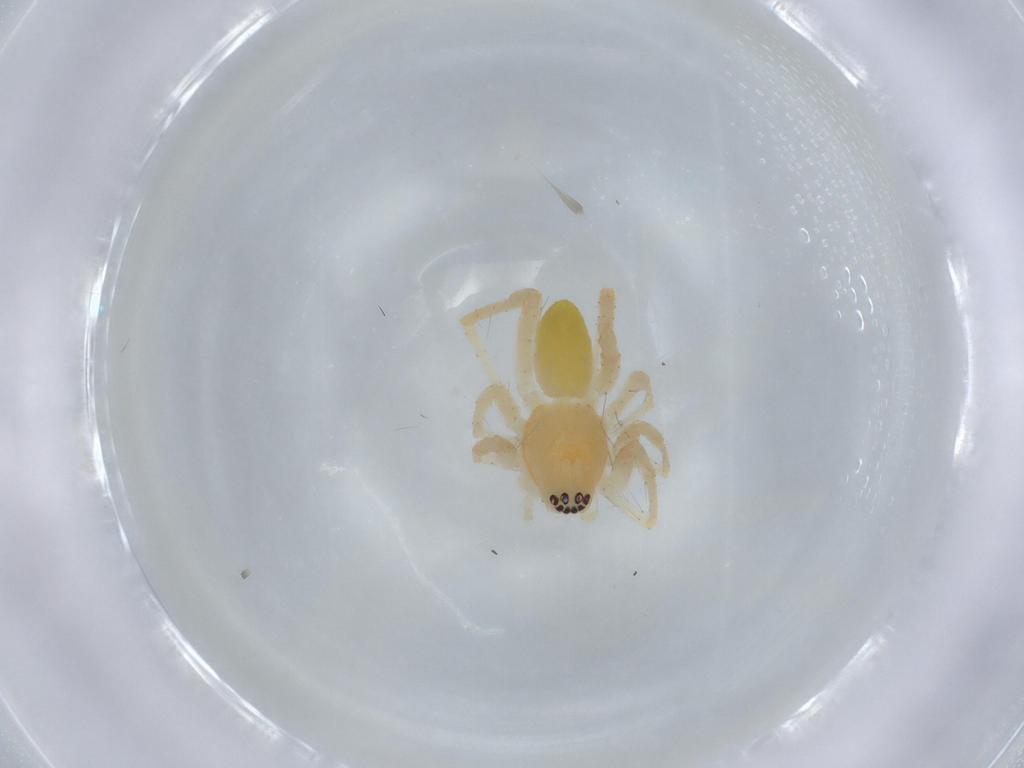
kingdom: Animalia
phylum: Arthropoda
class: Arachnida
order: Araneae
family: Anyphaenidae
